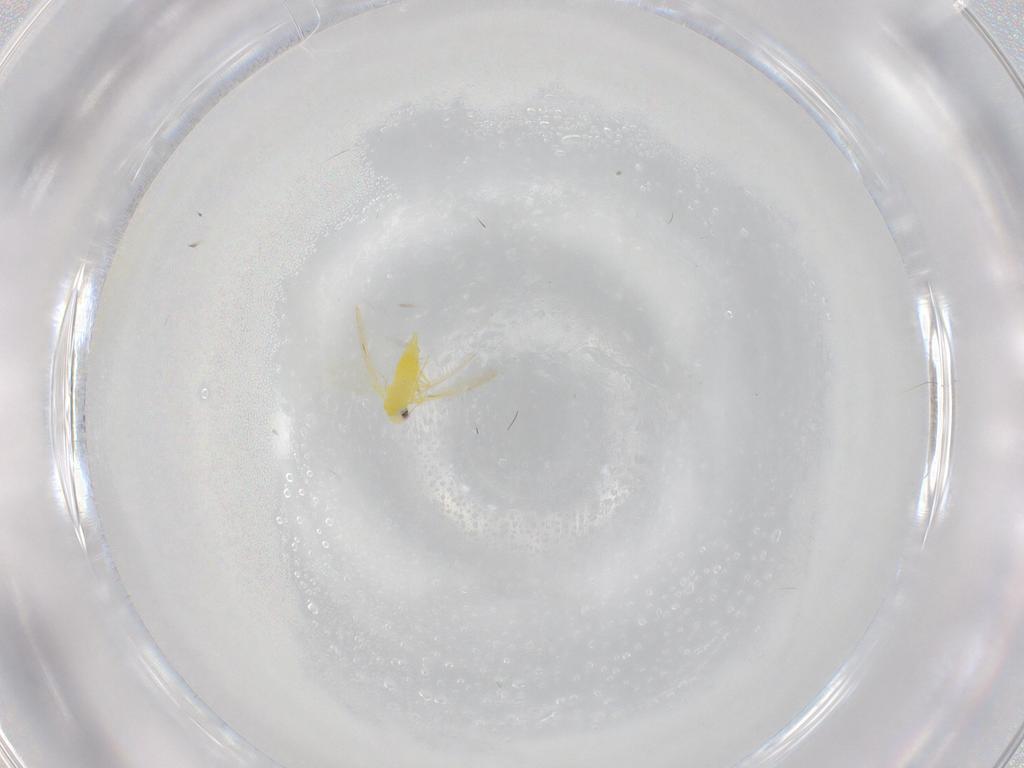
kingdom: Animalia
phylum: Arthropoda
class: Insecta
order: Hemiptera
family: Aleyrodidae
